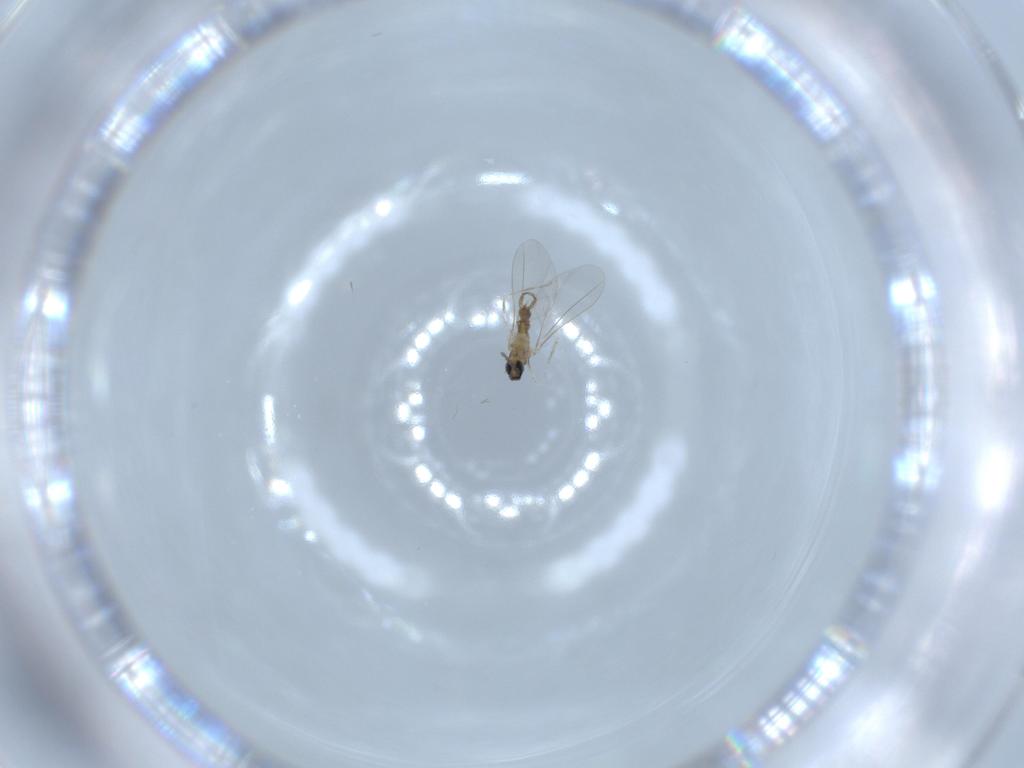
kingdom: Animalia
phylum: Arthropoda
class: Insecta
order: Diptera
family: Cecidomyiidae
